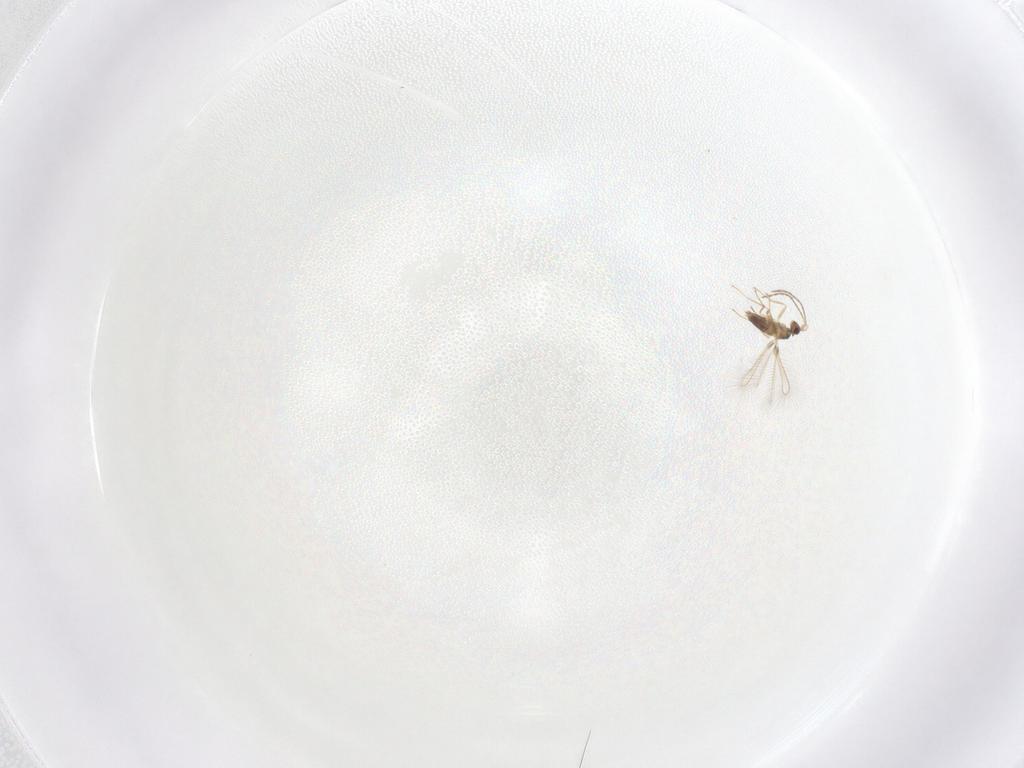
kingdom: Animalia
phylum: Arthropoda
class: Insecta
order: Hymenoptera
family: Mymaridae
